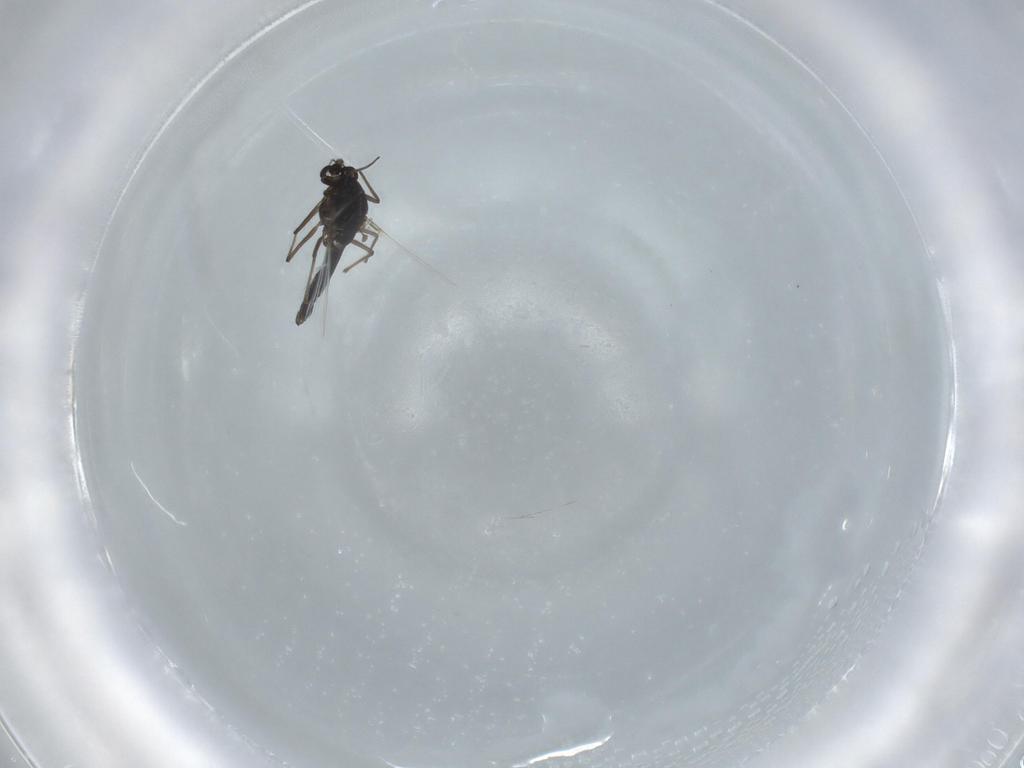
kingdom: Animalia
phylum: Arthropoda
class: Insecta
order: Diptera
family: Chironomidae
